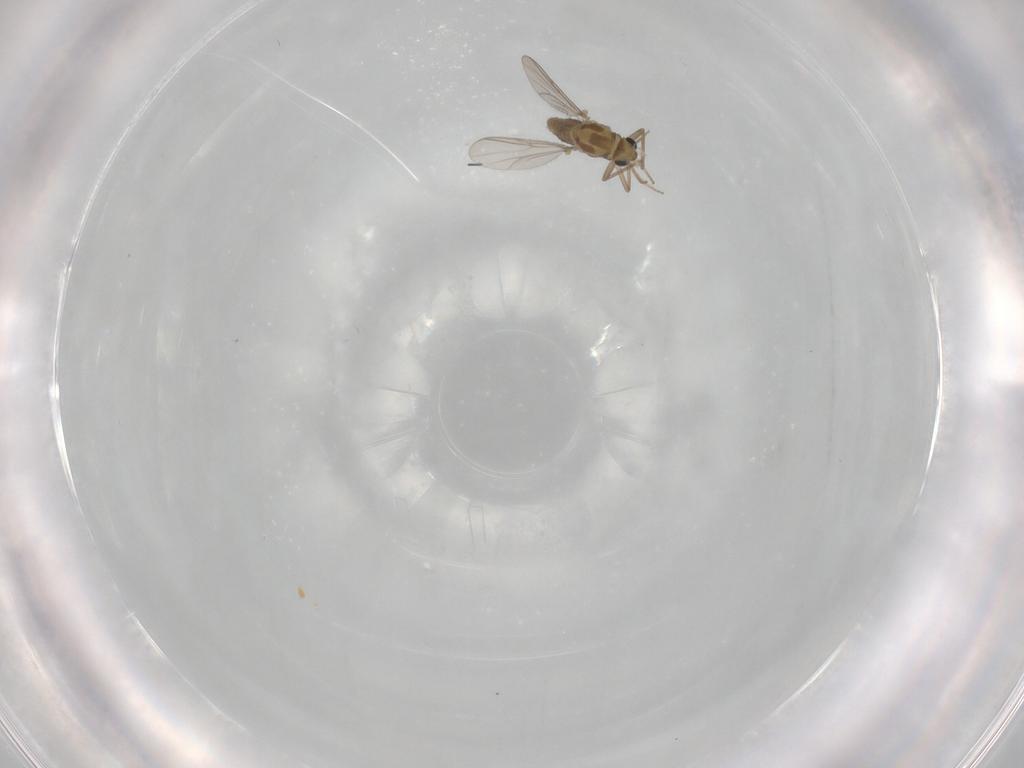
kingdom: Animalia
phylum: Arthropoda
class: Insecta
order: Diptera
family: Chironomidae
